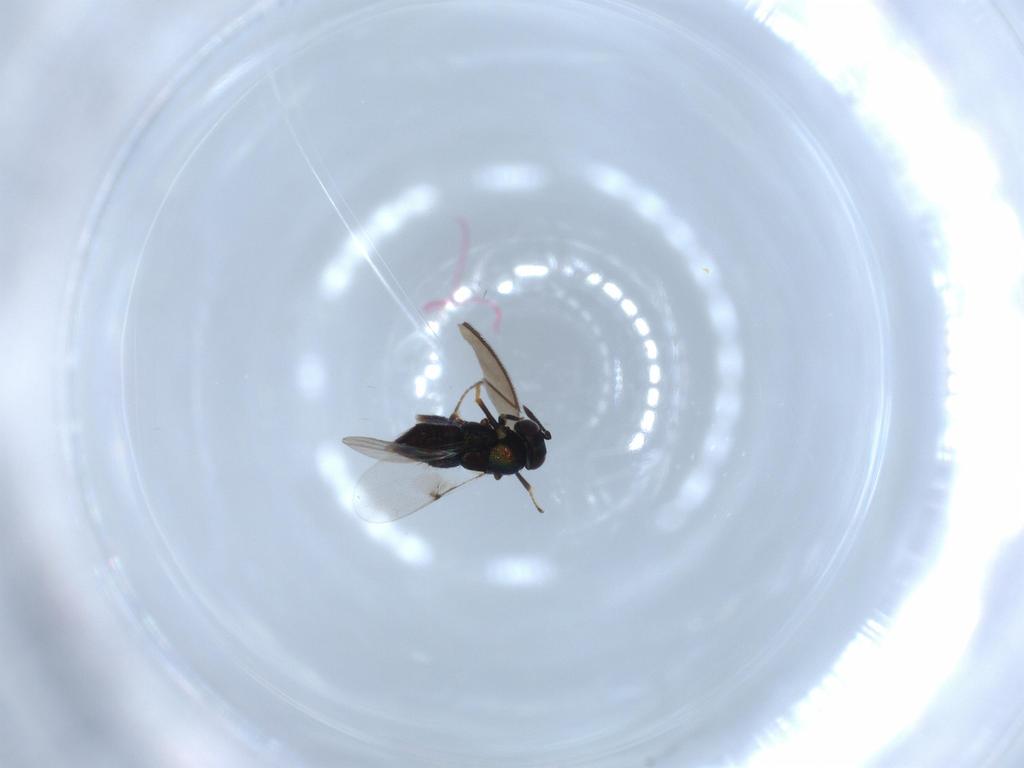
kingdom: Animalia
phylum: Arthropoda
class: Insecta
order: Hymenoptera
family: Encyrtidae
